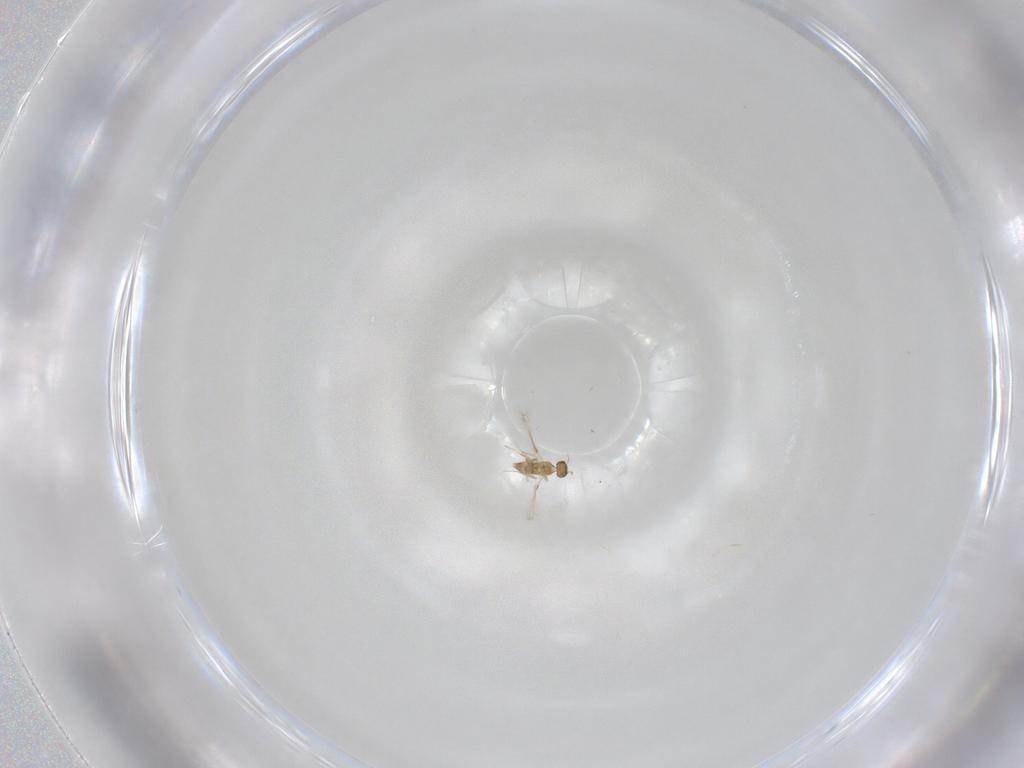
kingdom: Animalia
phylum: Arthropoda
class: Insecta
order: Hymenoptera
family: Mymaridae
